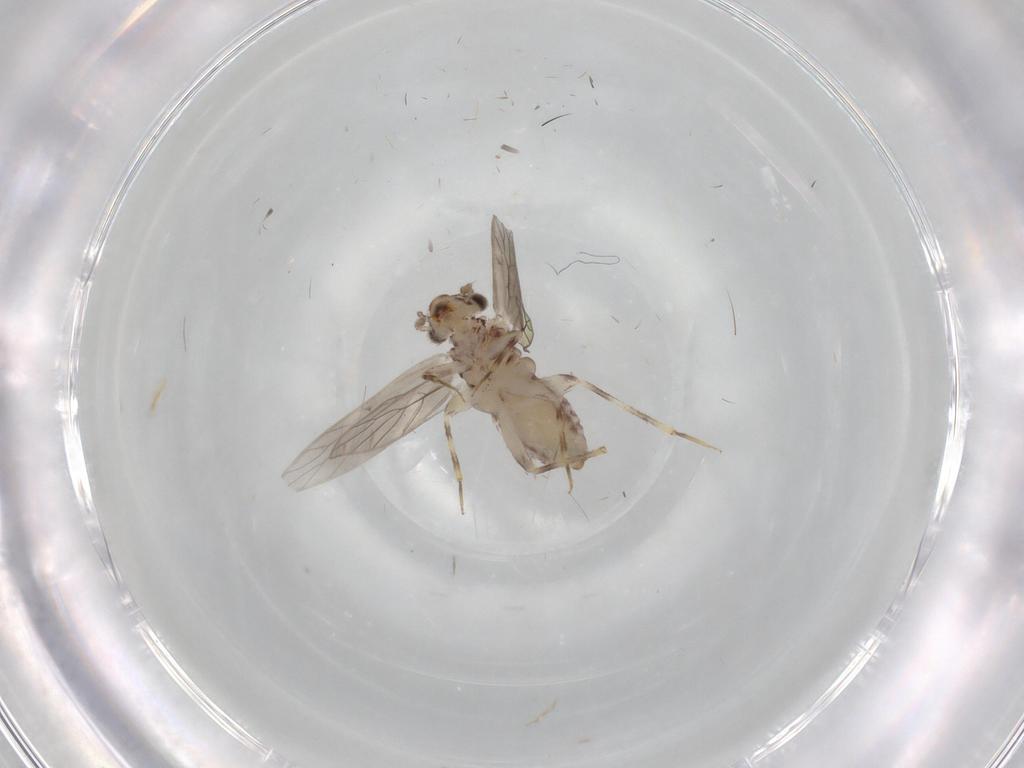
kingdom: Animalia
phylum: Arthropoda
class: Insecta
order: Psocodea
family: Lepidopsocidae
